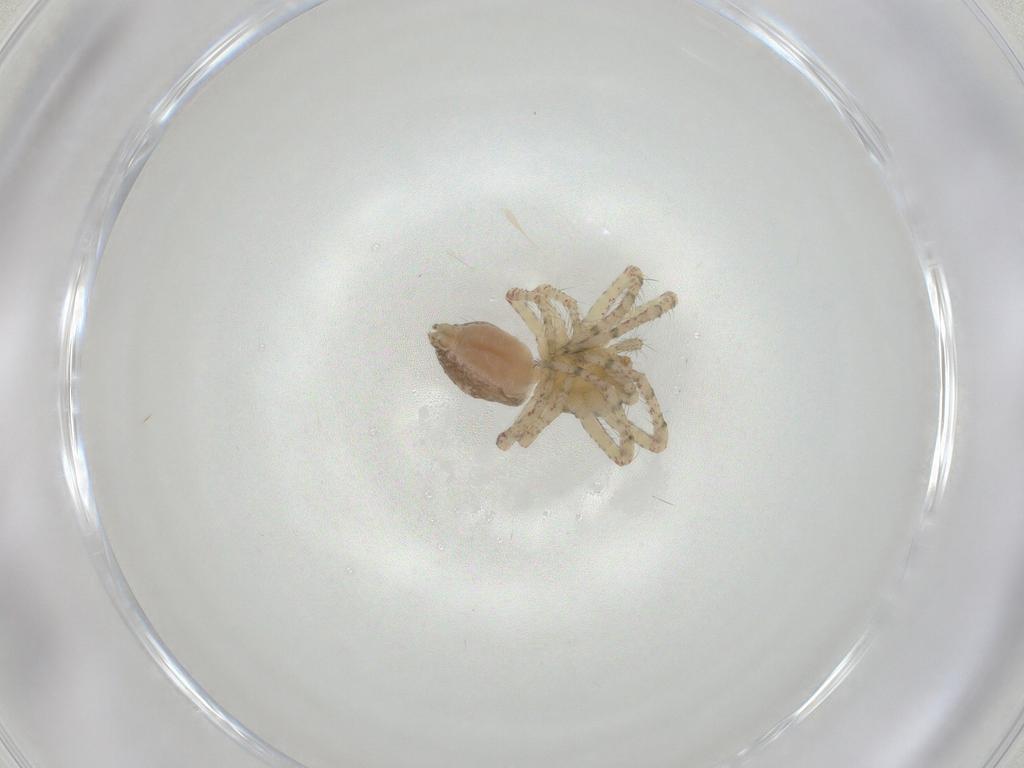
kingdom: Animalia
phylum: Arthropoda
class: Arachnida
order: Araneae
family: Thomisidae
